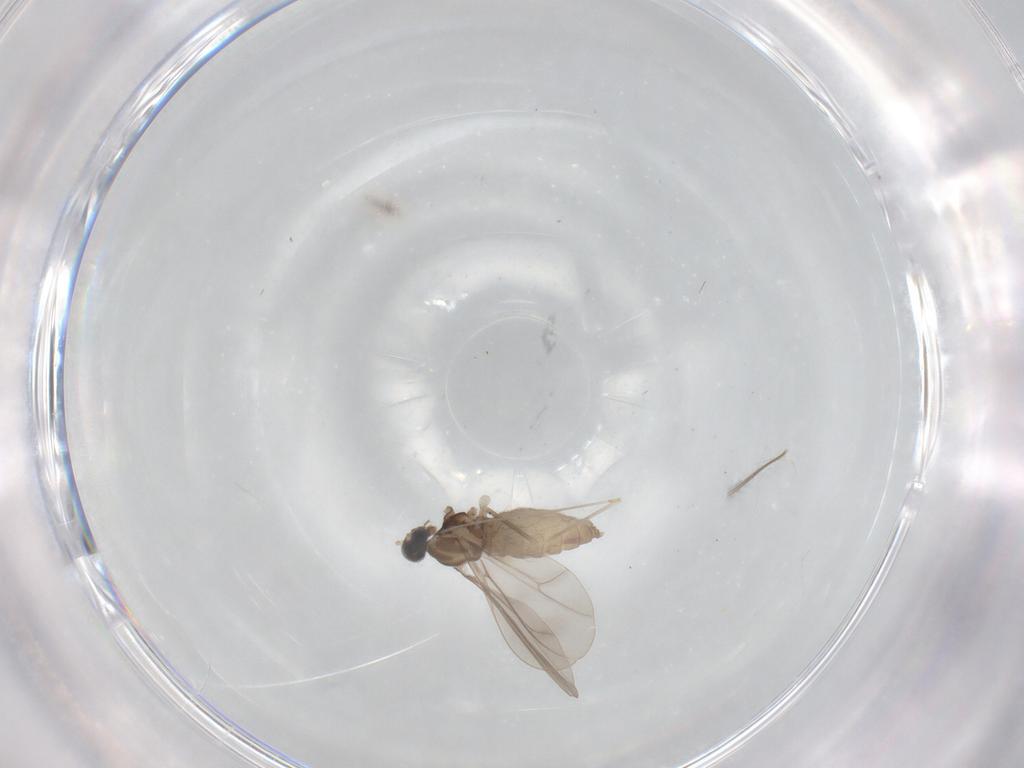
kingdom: Animalia
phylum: Arthropoda
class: Insecta
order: Diptera
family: Cecidomyiidae
